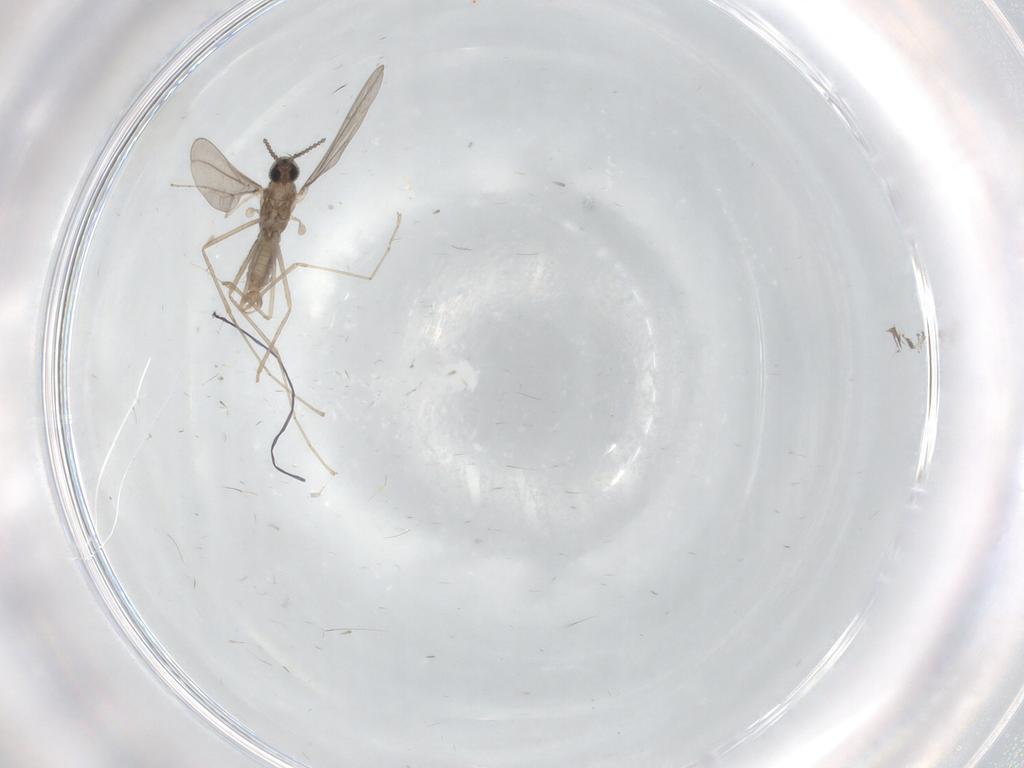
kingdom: Animalia
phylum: Arthropoda
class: Insecta
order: Diptera
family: Cecidomyiidae
